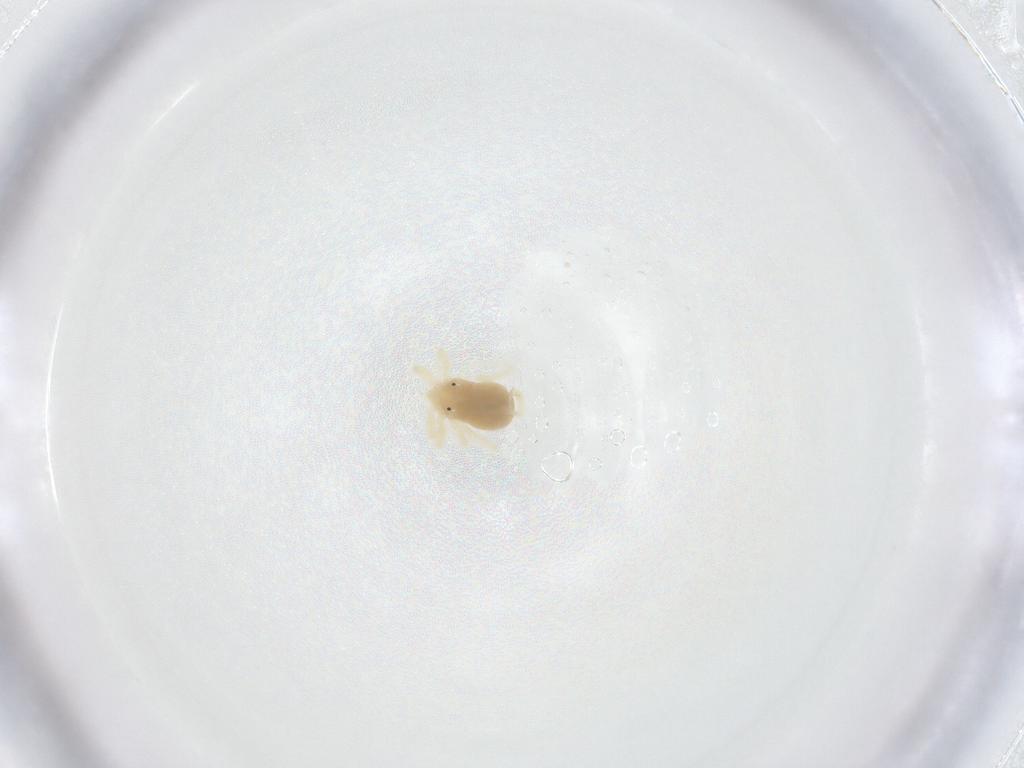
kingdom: Animalia
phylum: Arthropoda
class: Arachnida
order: Trombidiformes
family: Anystidae
